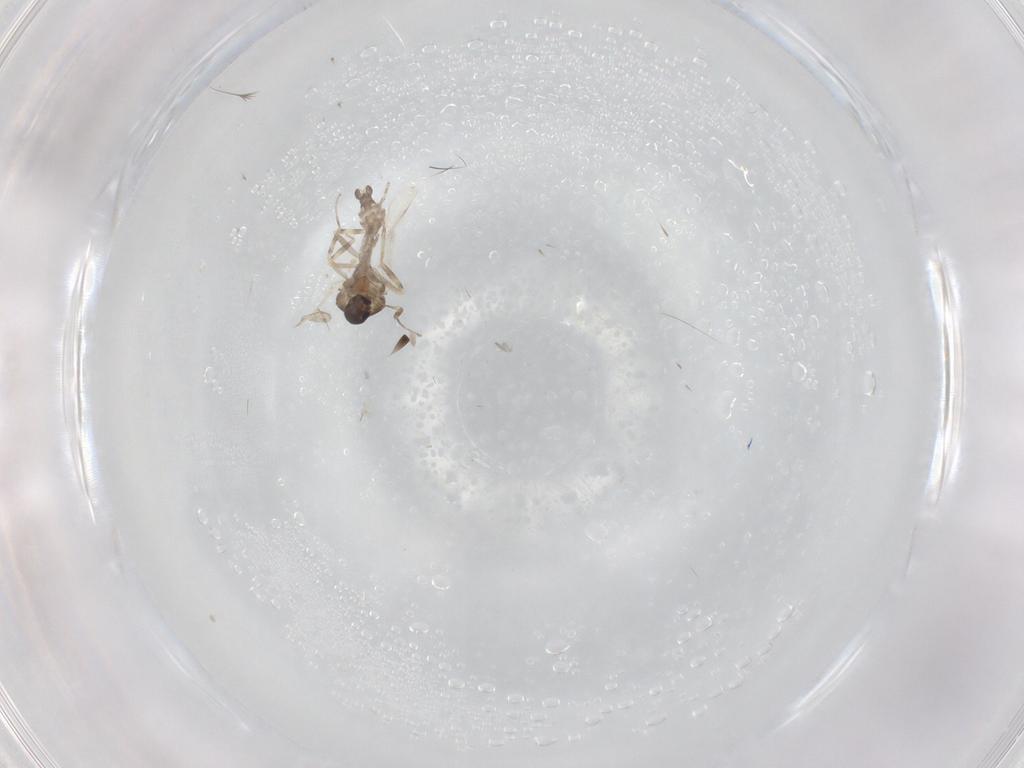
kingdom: Animalia
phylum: Arthropoda
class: Insecta
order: Diptera
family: Ceratopogonidae
